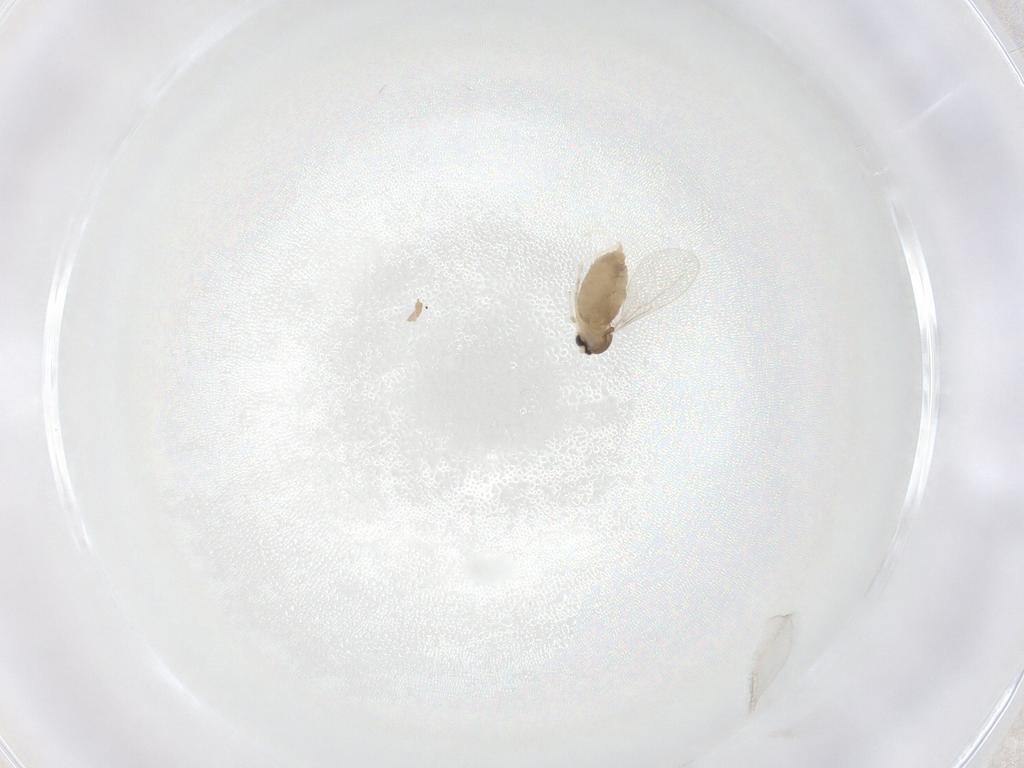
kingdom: Animalia
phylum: Arthropoda
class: Insecta
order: Diptera
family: Cecidomyiidae
